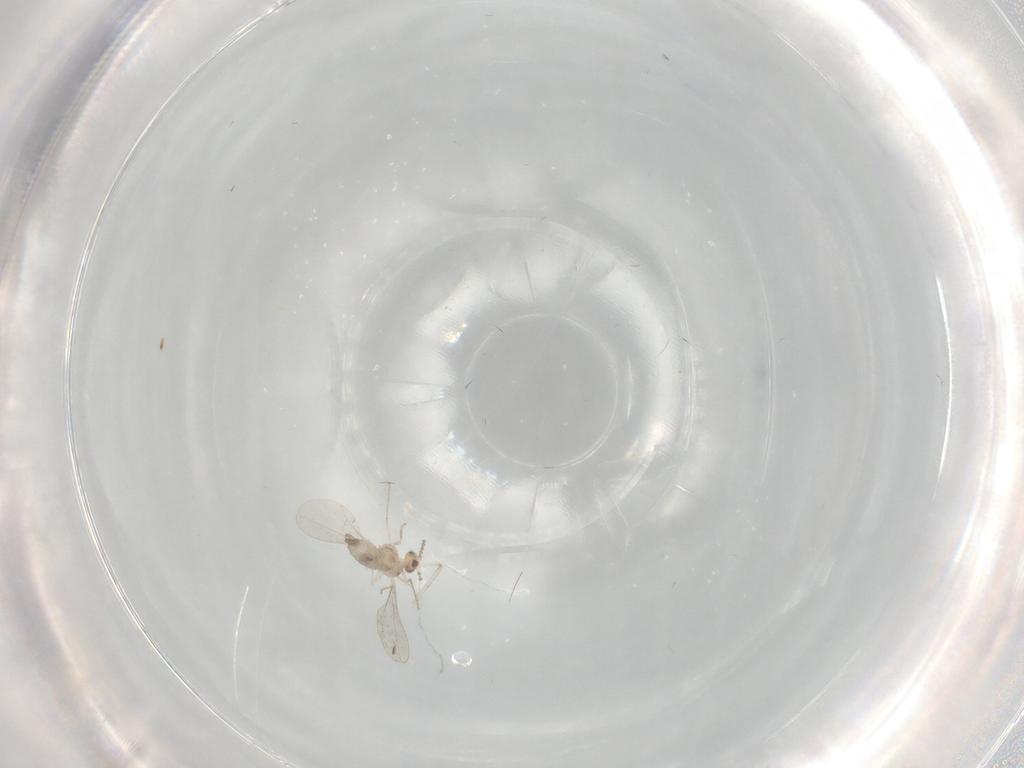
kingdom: Animalia
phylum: Arthropoda
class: Insecta
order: Diptera
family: Cecidomyiidae
